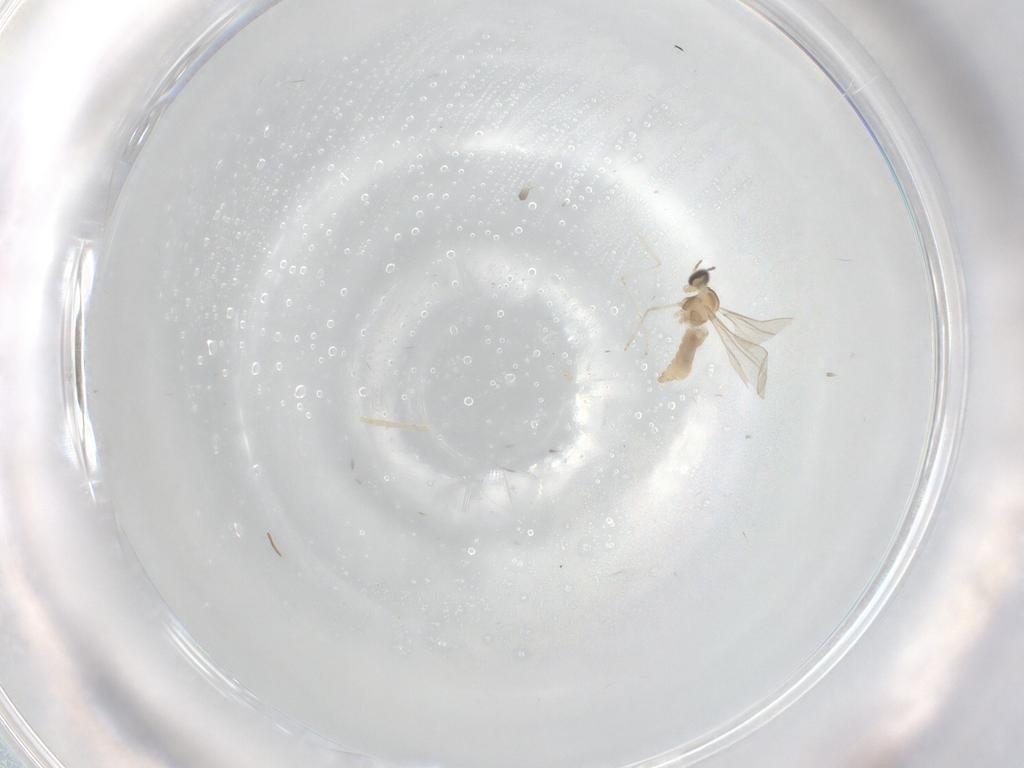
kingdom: Animalia
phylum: Arthropoda
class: Insecta
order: Diptera
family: Cecidomyiidae
